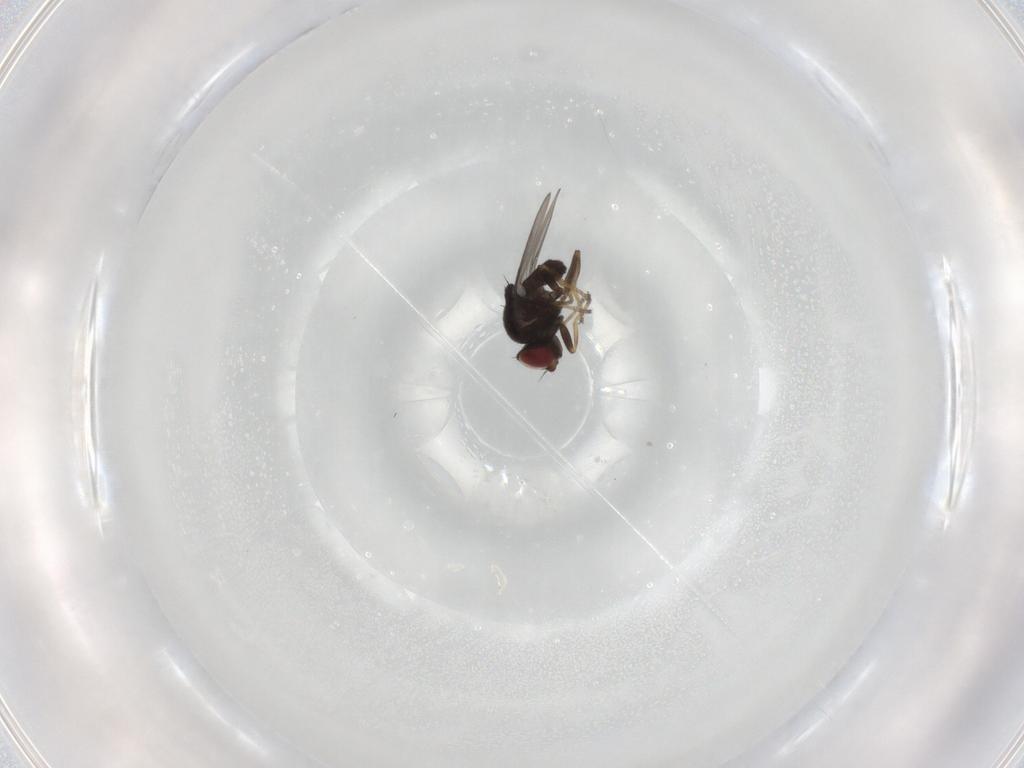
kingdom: Animalia
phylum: Arthropoda
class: Insecta
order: Diptera
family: Chloropidae
